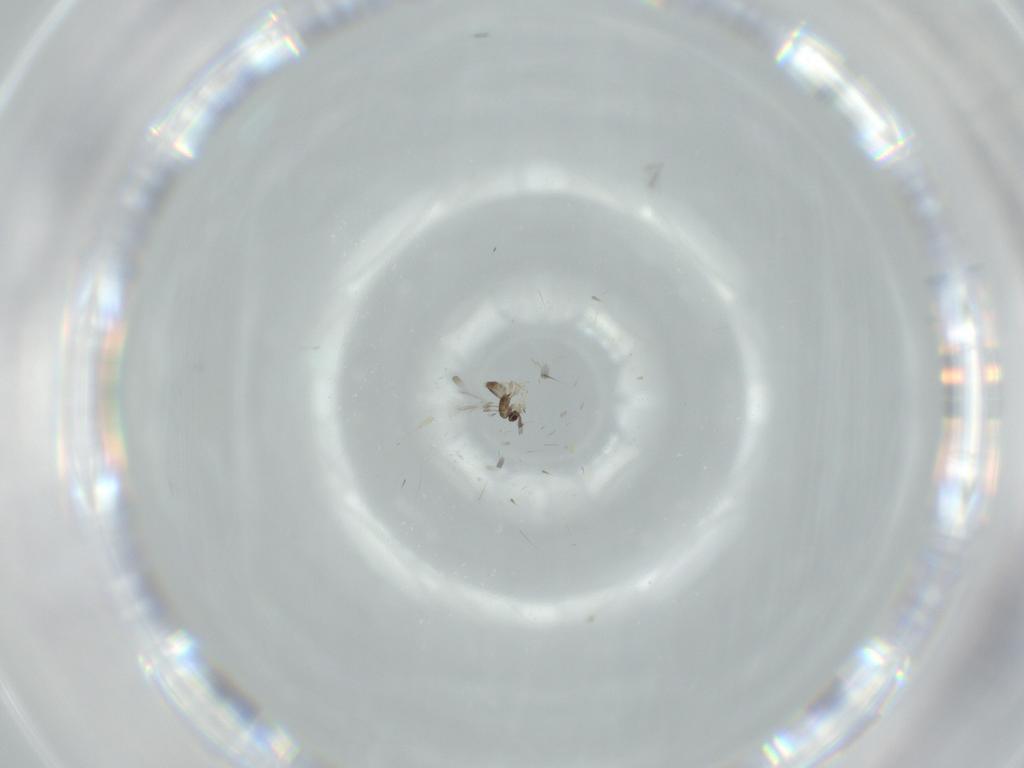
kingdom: Animalia
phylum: Arthropoda
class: Insecta
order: Hymenoptera
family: Mymaridae
